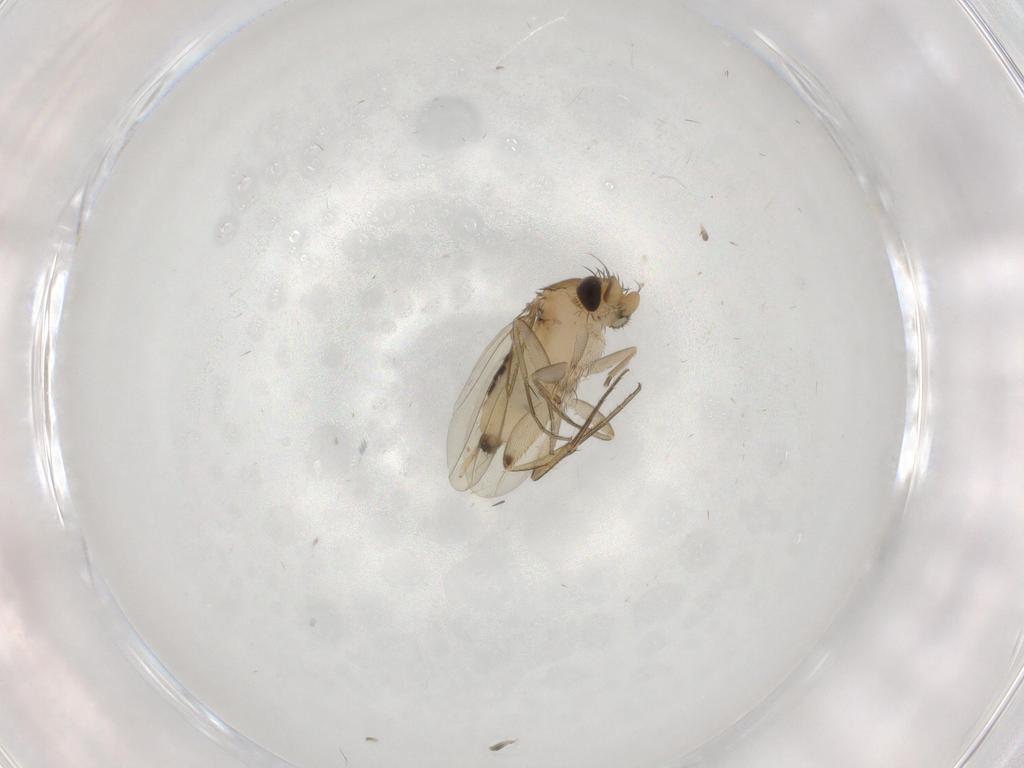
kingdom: Animalia
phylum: Arthropoda
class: Insecta
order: Diptera
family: Phoridae
